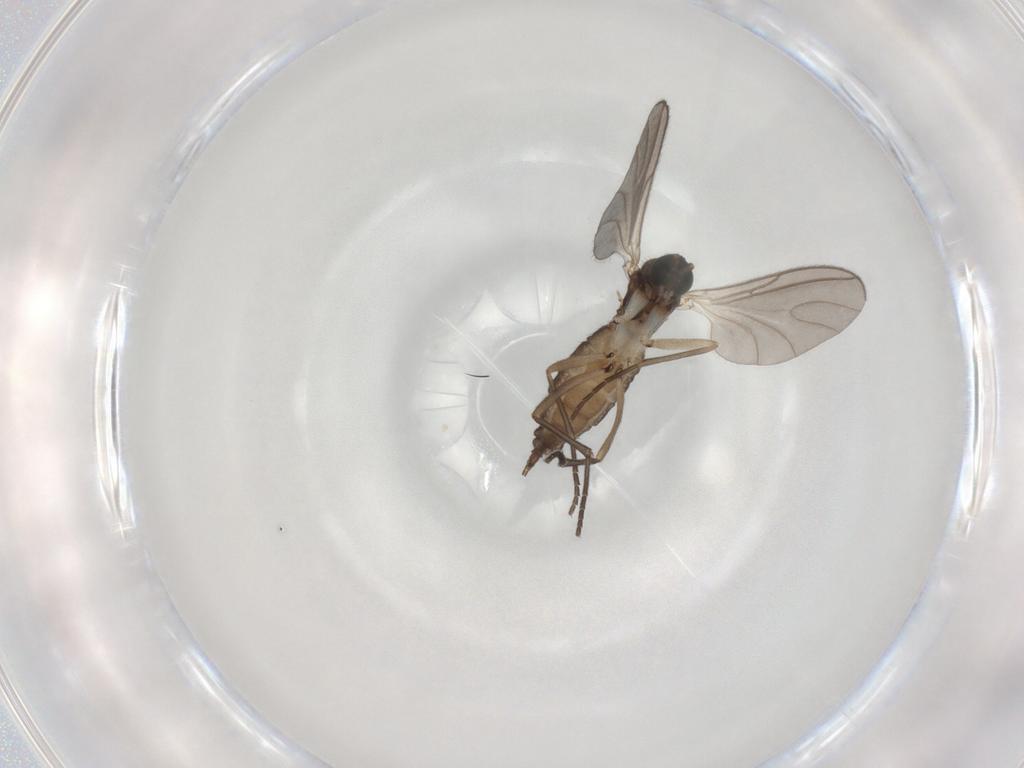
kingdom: Animalia
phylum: Arthropoda
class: Insecta
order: Diptera
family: Sciaridae
